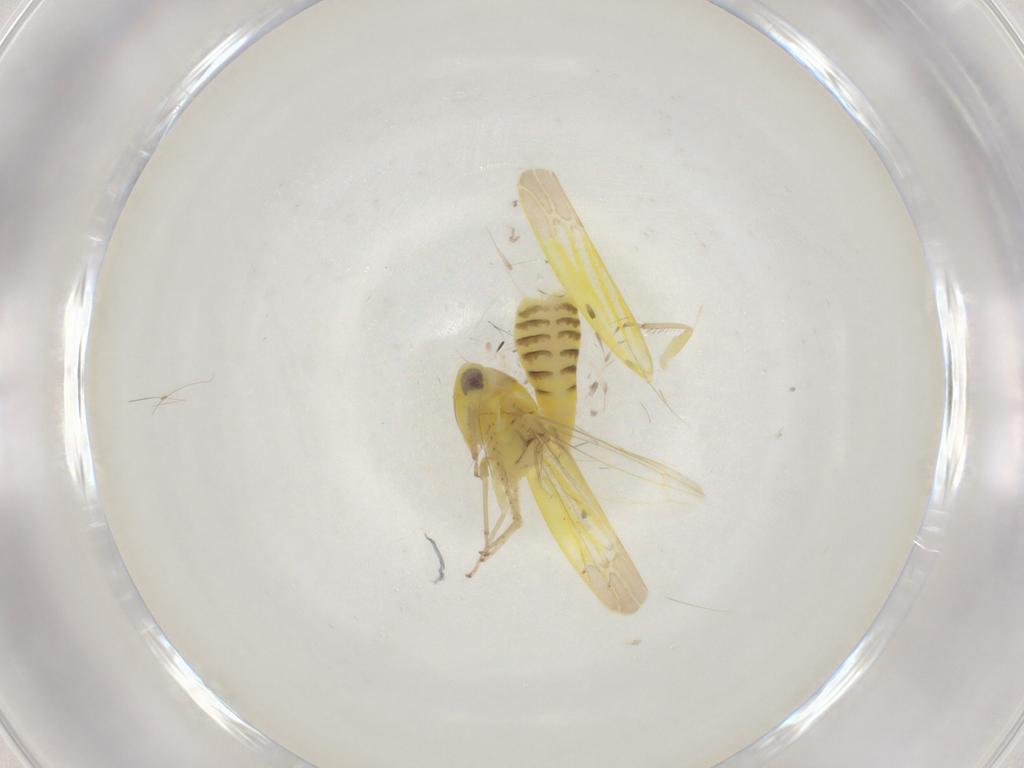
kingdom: Animalia
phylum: Arthropoda
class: Insecta
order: Hemiptera
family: Cicadellidae
